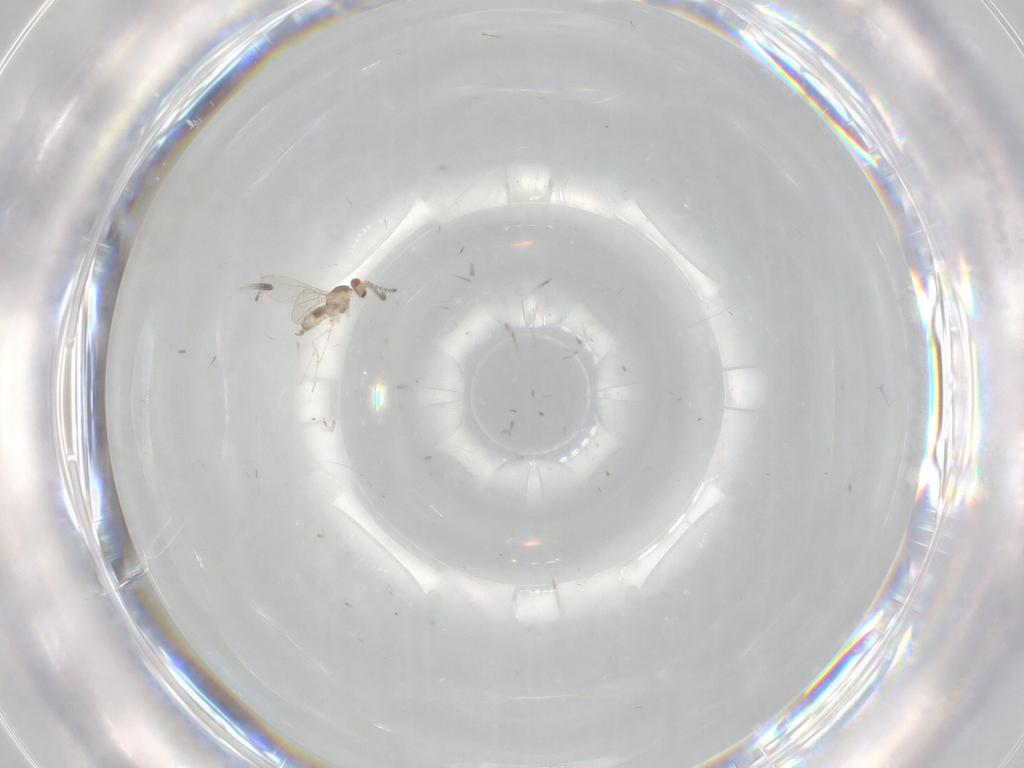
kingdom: Animalia
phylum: Arthropoda
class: Insecta
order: Diptera
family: Cecidomyiidae
